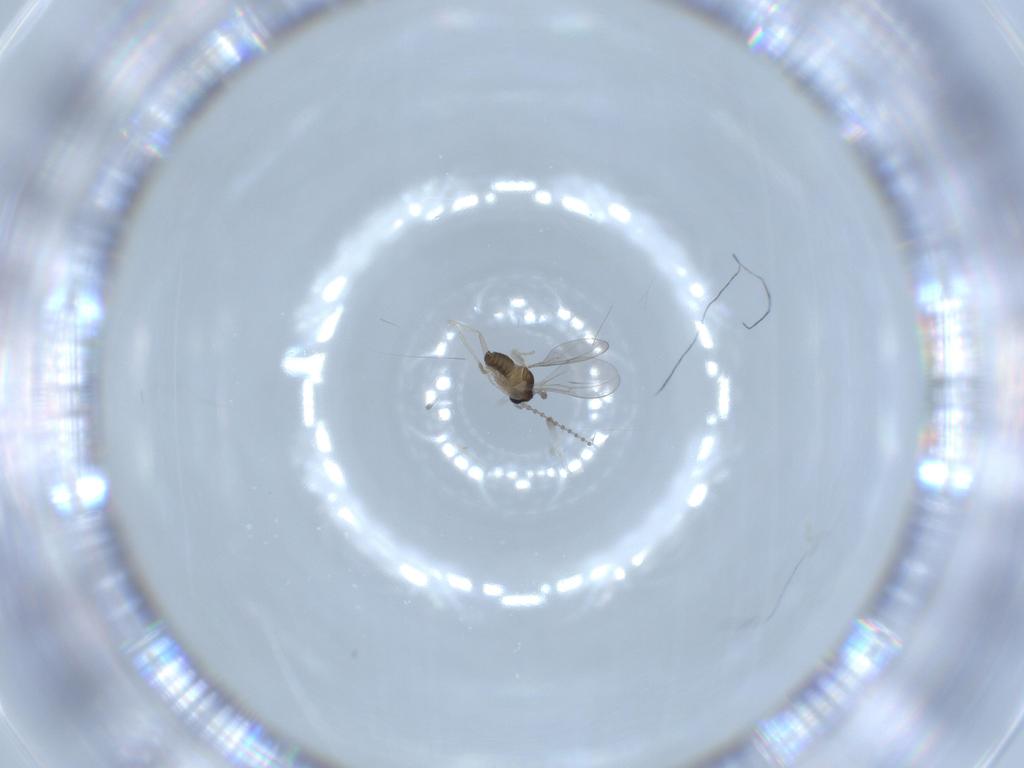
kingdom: Animalia
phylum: Arthropoda
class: Insecta
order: Diptera
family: Cecidomyiidae
